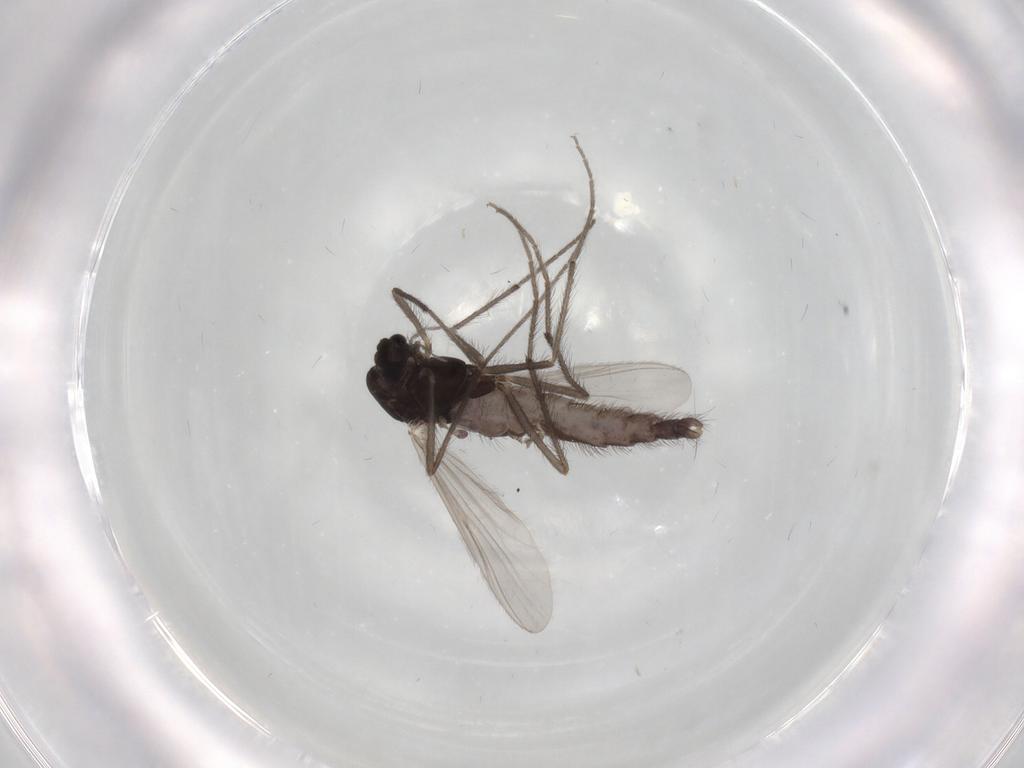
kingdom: Animalia
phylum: Arthropoda
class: Insecta
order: Diptera
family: Chironomidae
